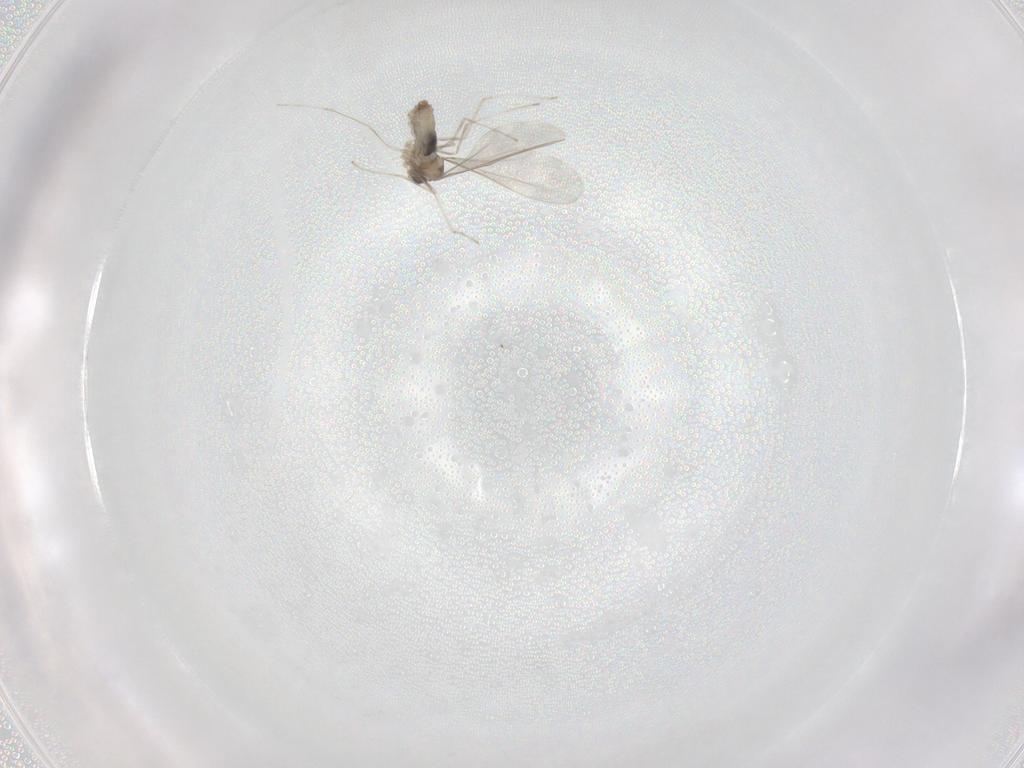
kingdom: Animalia
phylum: Arthropoda
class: Insecta
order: Diptera
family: Cecidomyiidae
